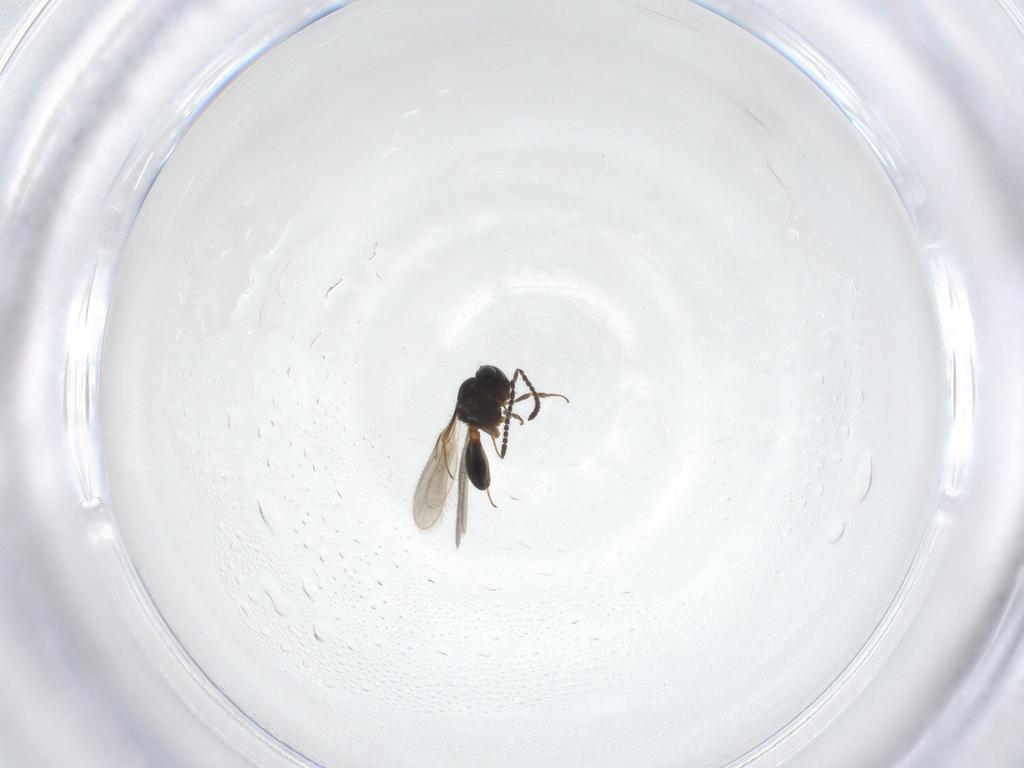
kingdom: Animalia
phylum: Arthropoda
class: Insecta
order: Hymenoptera
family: Scelionidae
